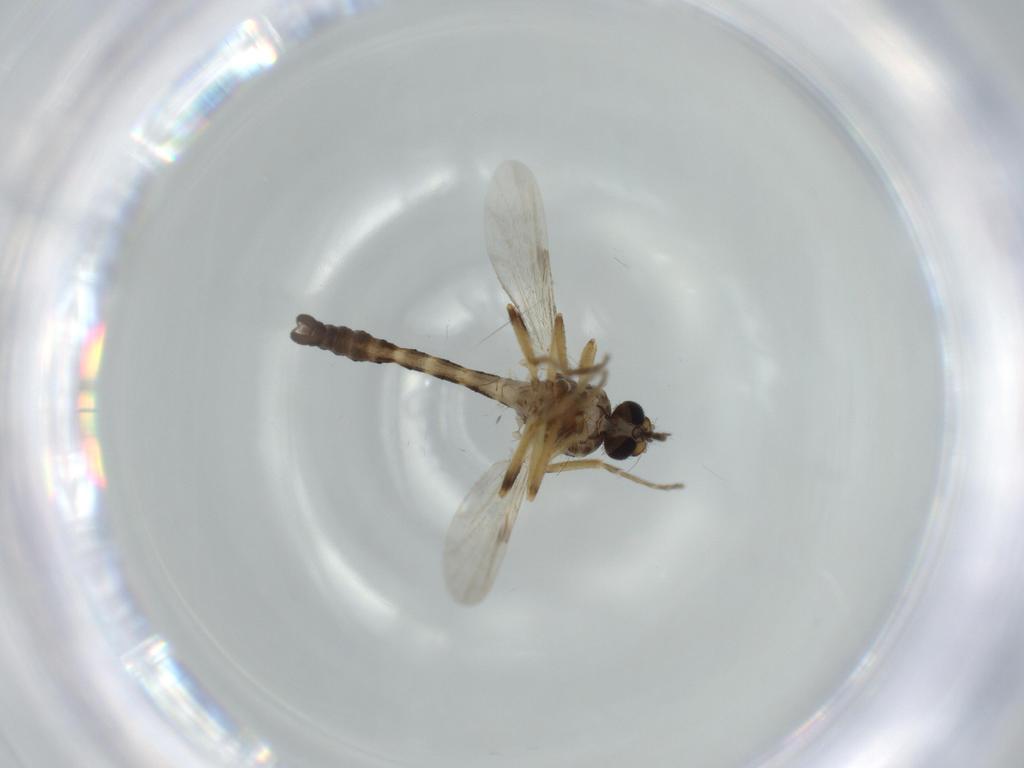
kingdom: Animalia
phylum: Arthropoda
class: Insecta
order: Diptera
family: Ceratopogonidae
